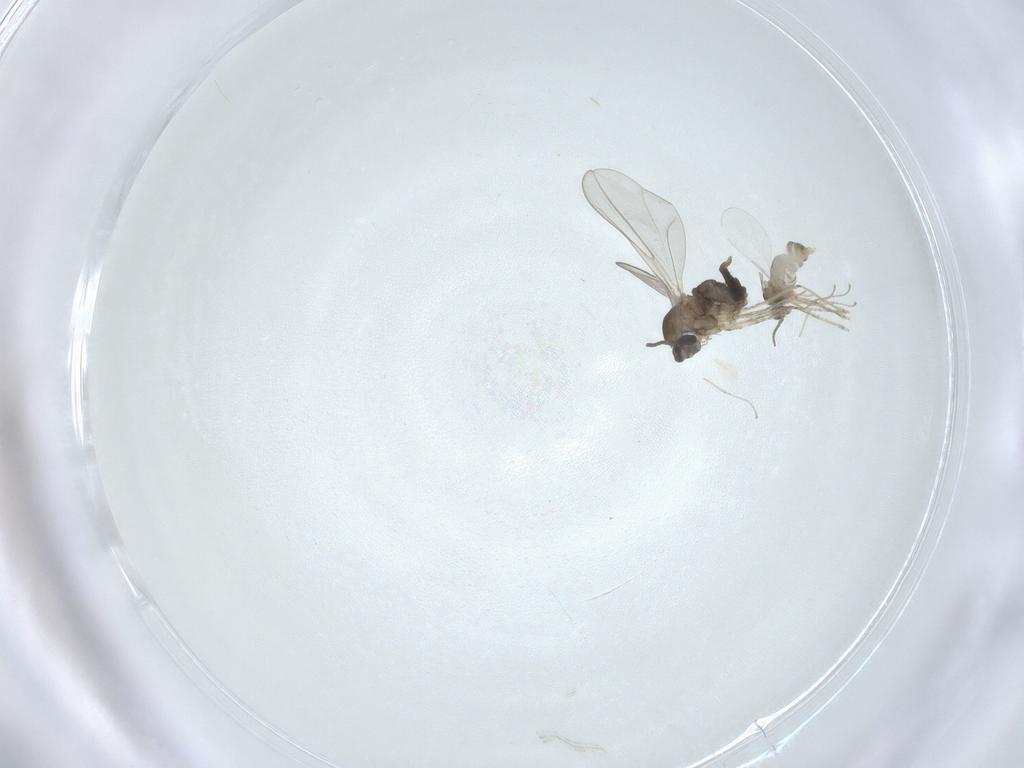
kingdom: Animalia
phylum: Arthropoda
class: Insecta
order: Diptera
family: Cecidomyiidae
